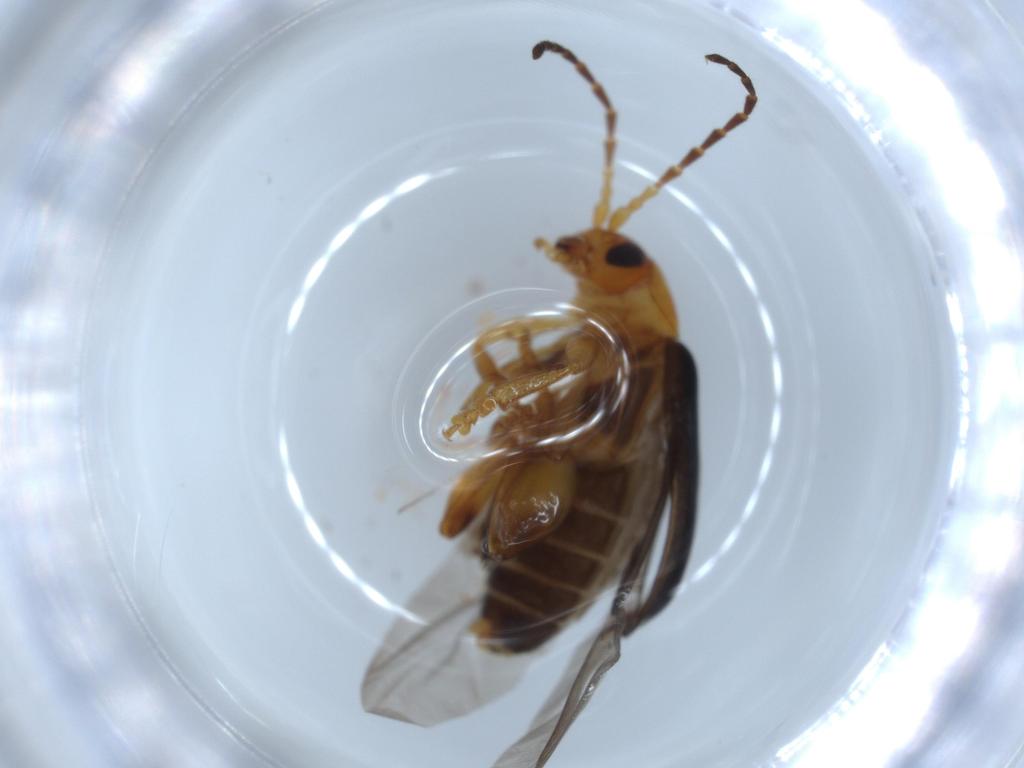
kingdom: Animalia
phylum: Arthropoda
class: Insecta
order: Coleoptera
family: Chrysomelidae
